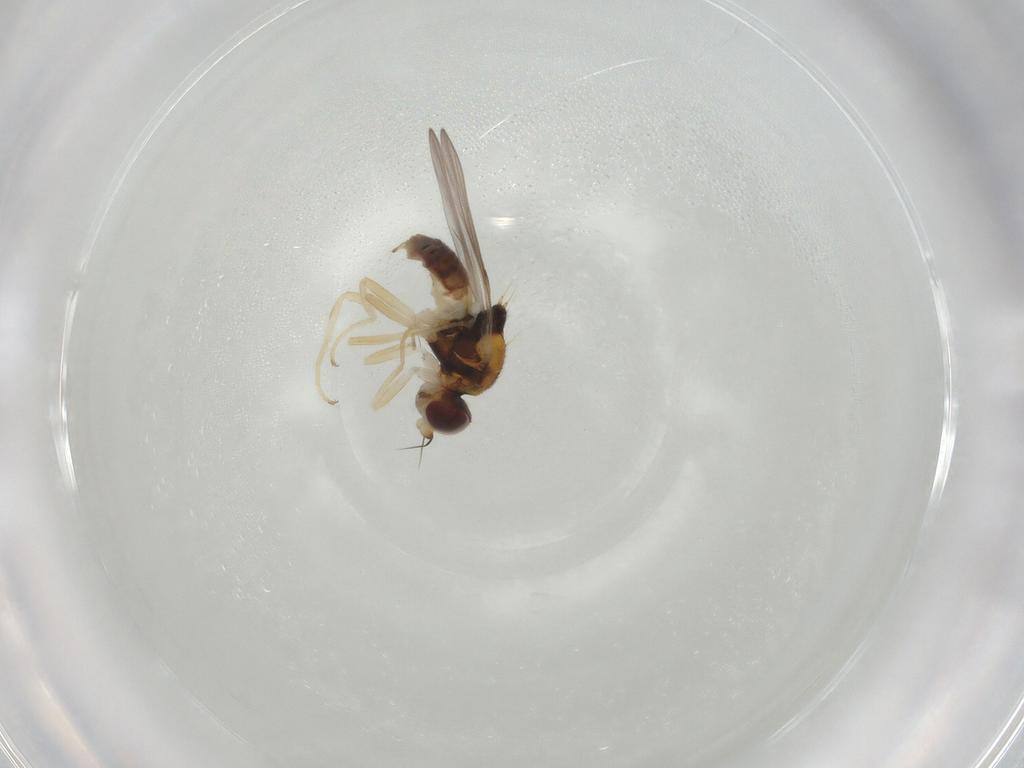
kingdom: Animalia
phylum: Arthropoda
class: Insecta
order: Diptera
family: Chloropidae
